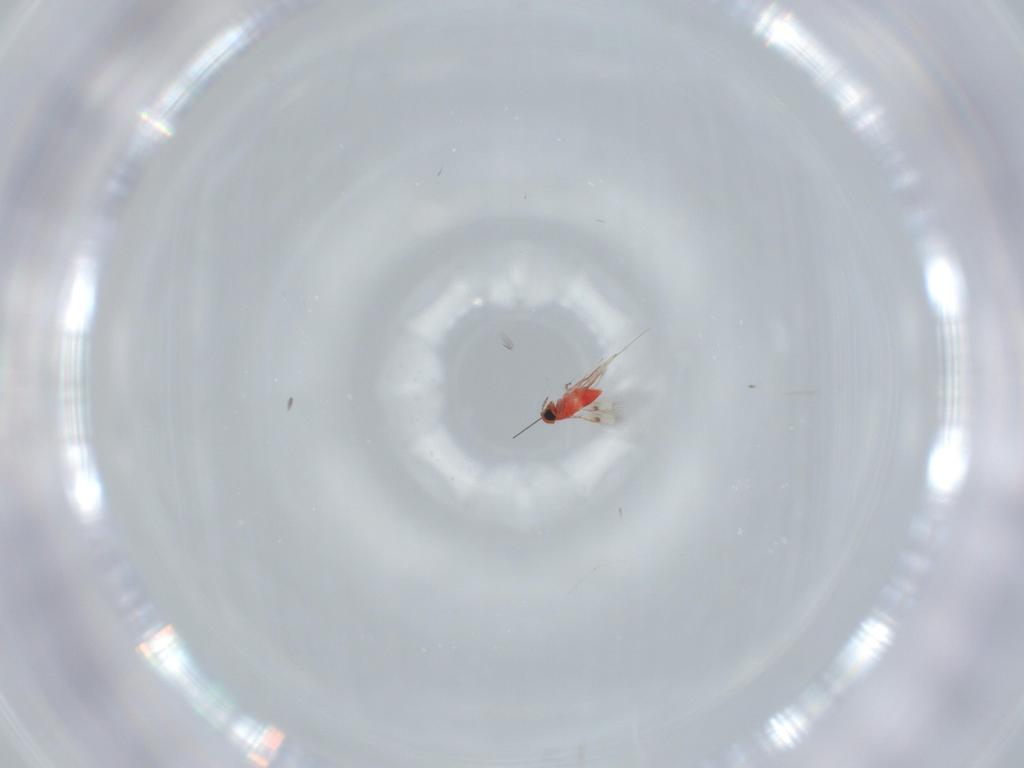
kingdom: Animalia
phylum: Arthropoda
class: Insecta
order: Hymenoptera
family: Trichogrammatidae
